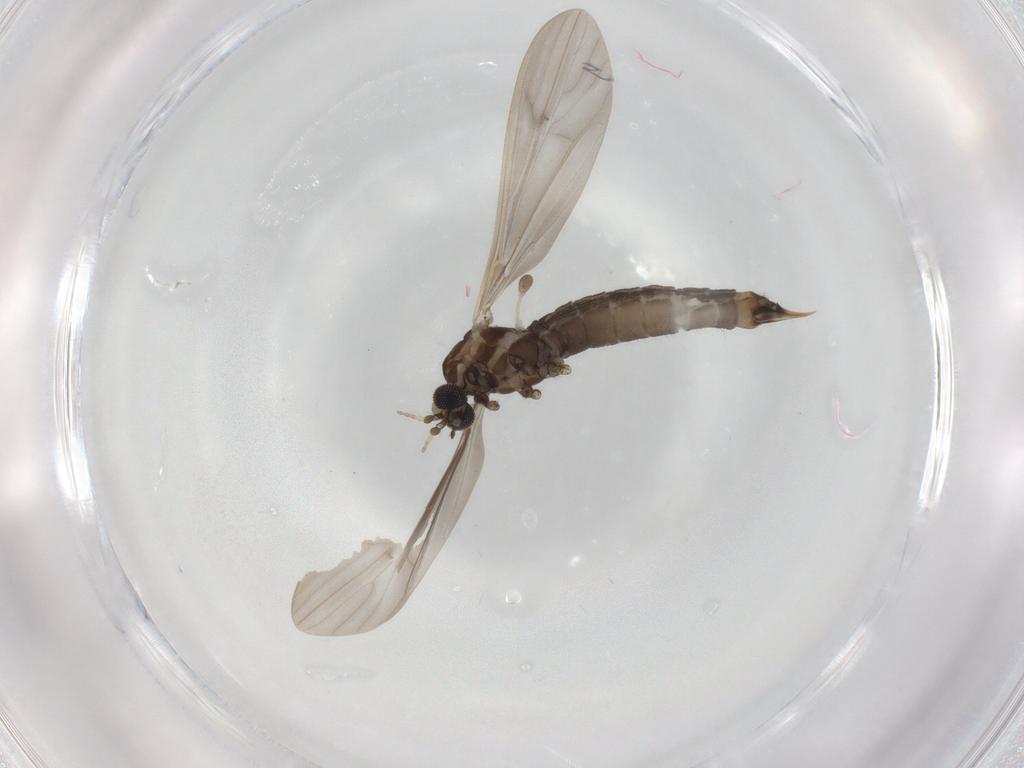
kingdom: Animalia
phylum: Arthropoda
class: Insecta
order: Diptera
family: Limoniidae
